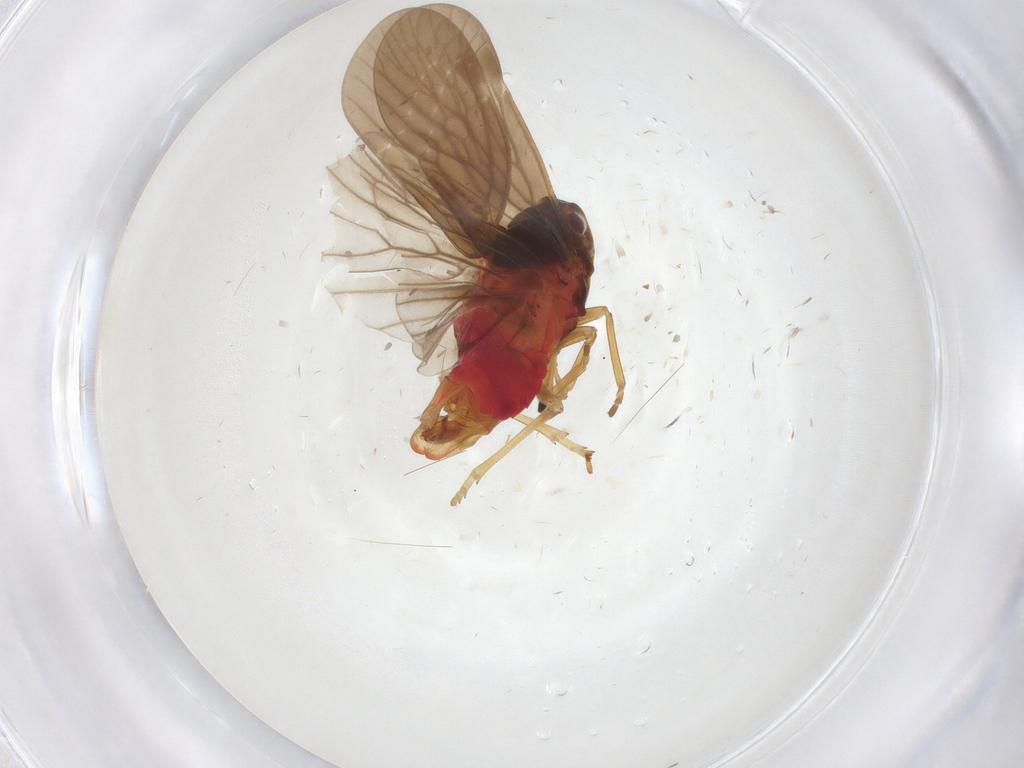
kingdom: Animalia
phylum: Arthropoda
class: Insecta
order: Hemiptera
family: Derbidae
